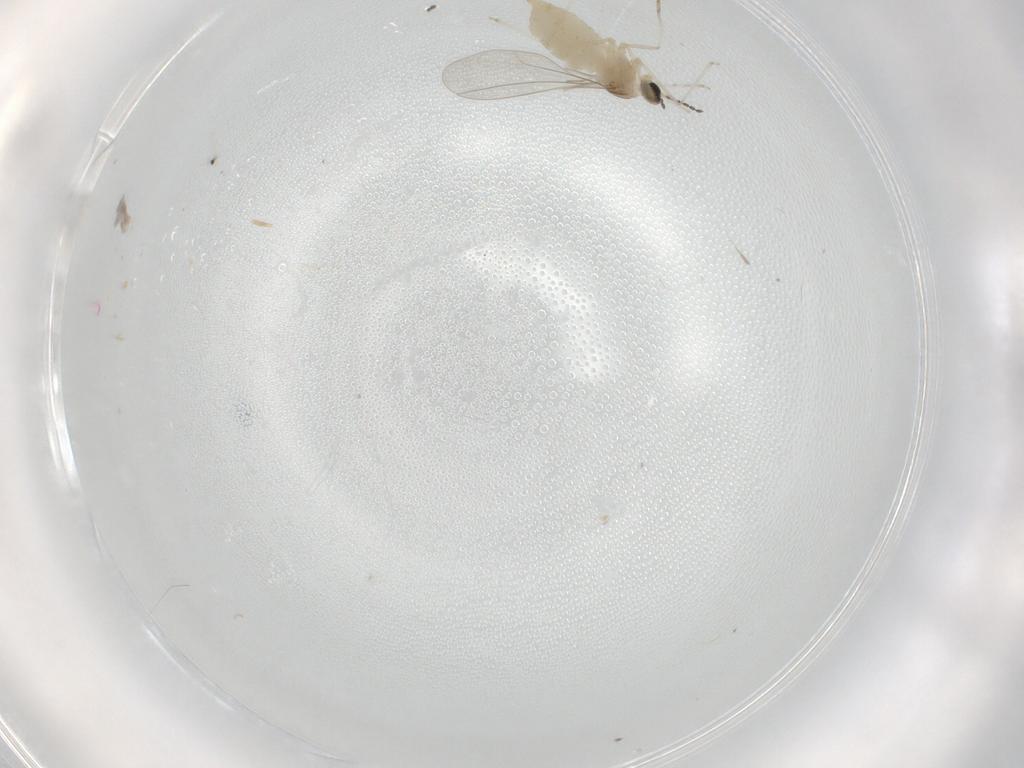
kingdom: Animalia
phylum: Arthropoda
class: Insecta
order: Diptera
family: Cecidomyiidae
